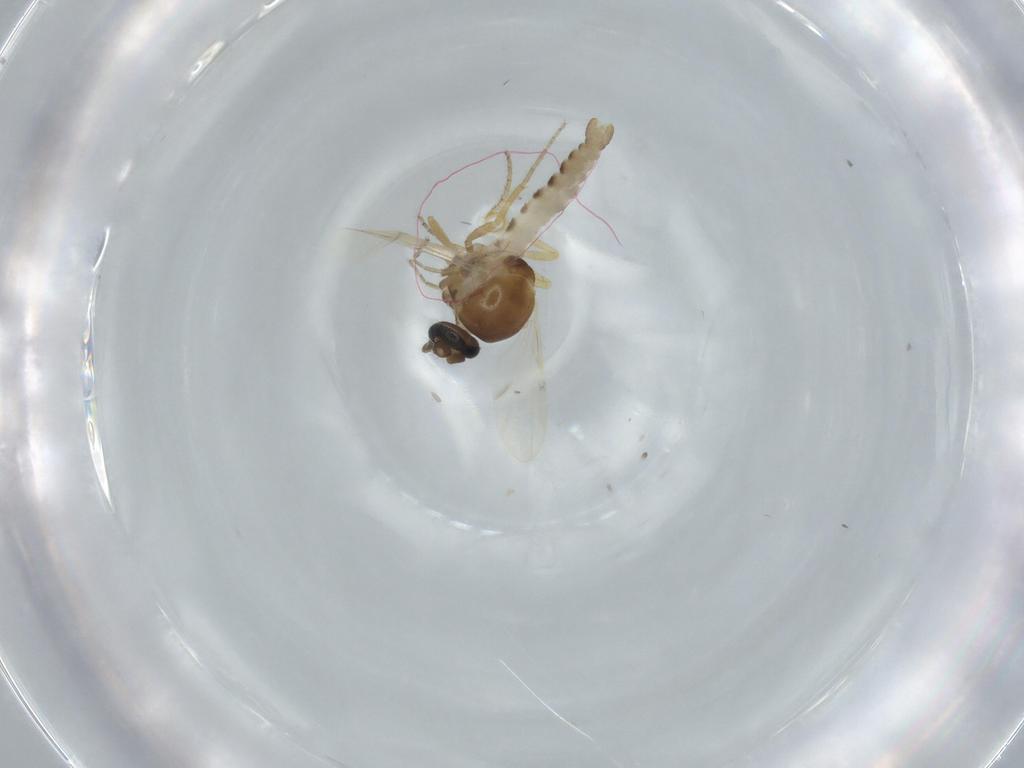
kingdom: Animalia
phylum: Arthropoda
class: Insecta
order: Diptera
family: Ceratopogonidae
